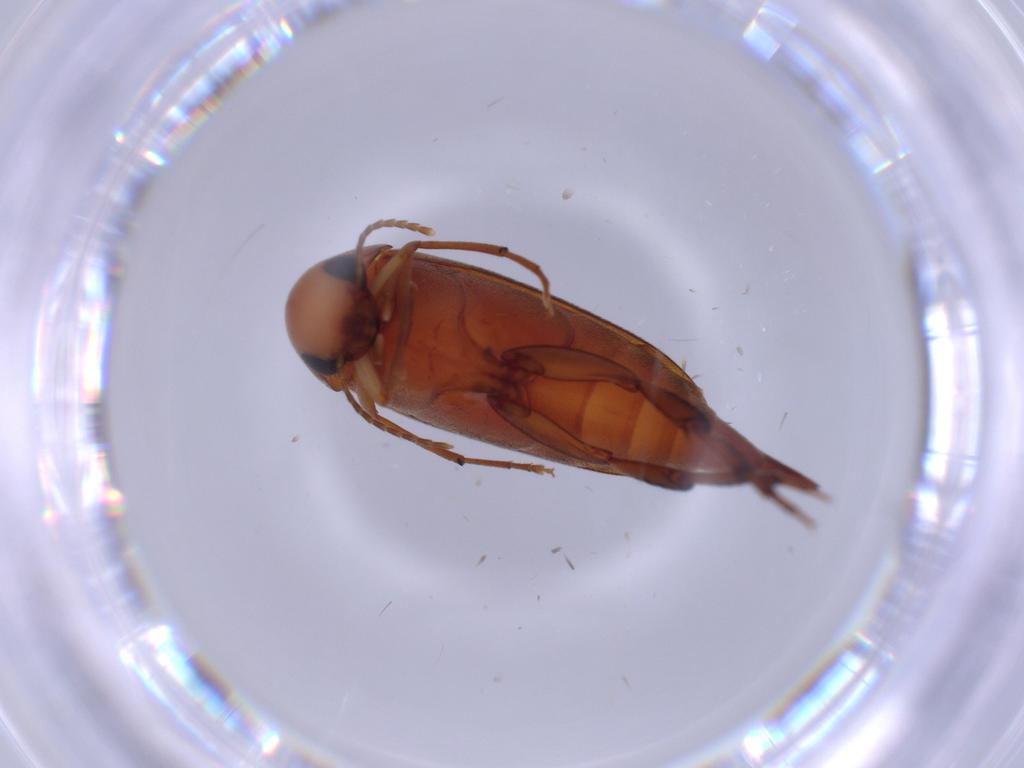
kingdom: Animalia
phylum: Arthropoda
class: Insecta
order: Coleoptera
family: Mordellidae
